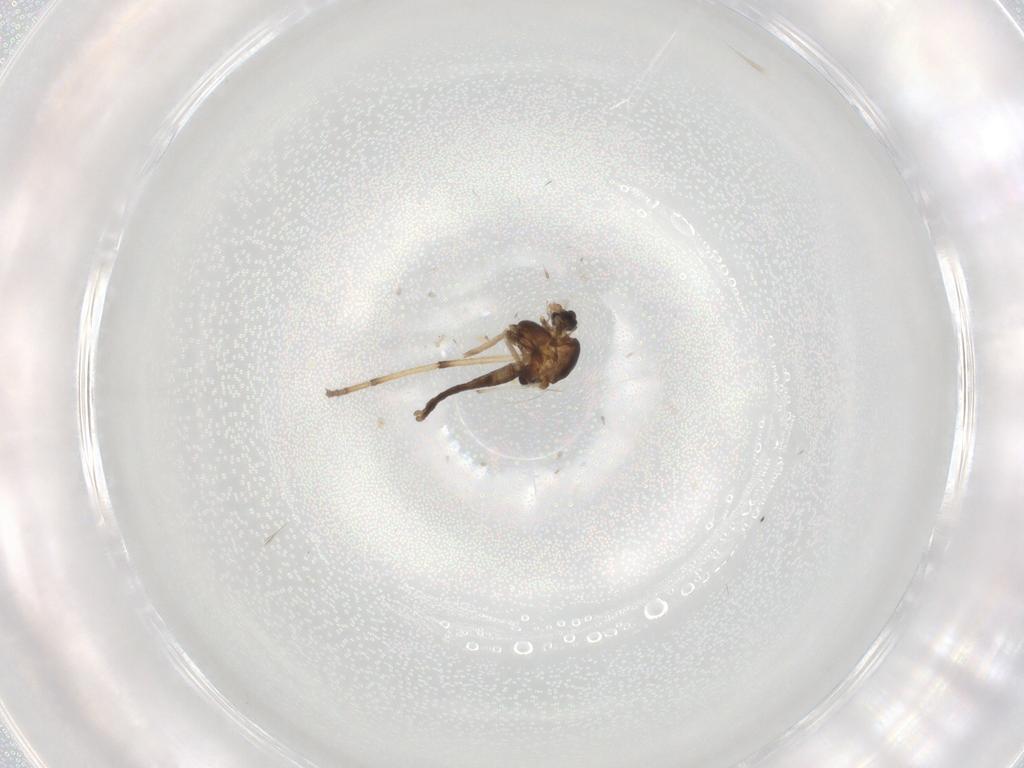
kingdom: Animalia
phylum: Arthropoda
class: Insecta
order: Diptera
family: Chironomidae
